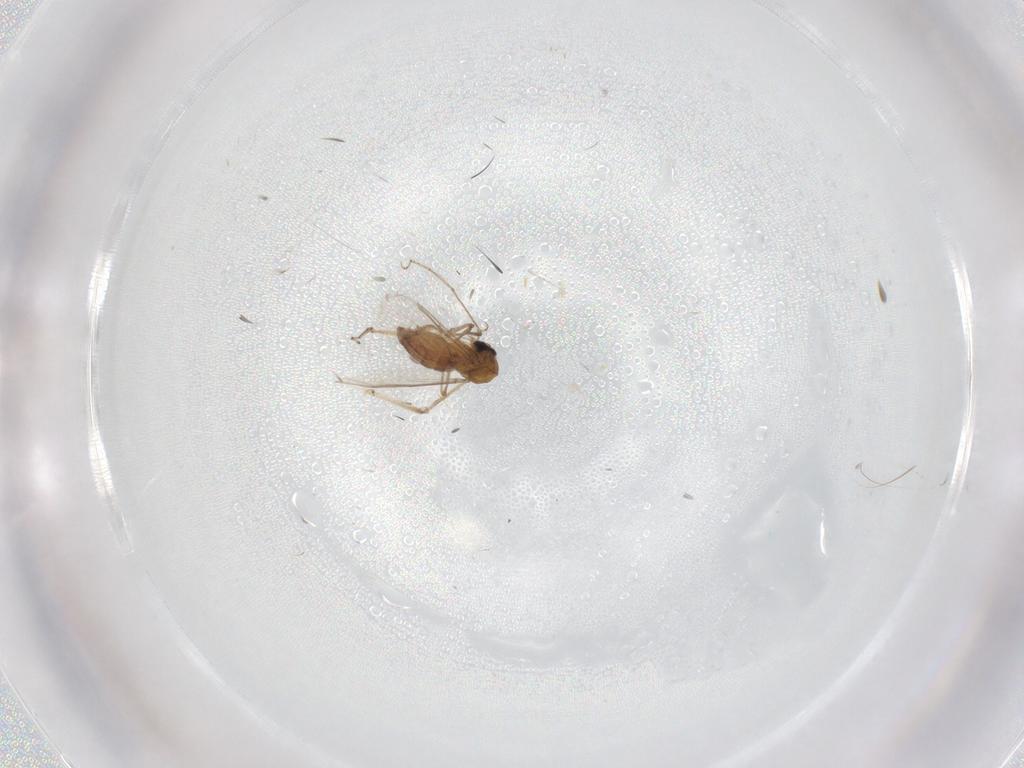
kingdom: Animalia
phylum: Arthropoda
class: Insecta
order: Diptera
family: Ceratopogonidae
